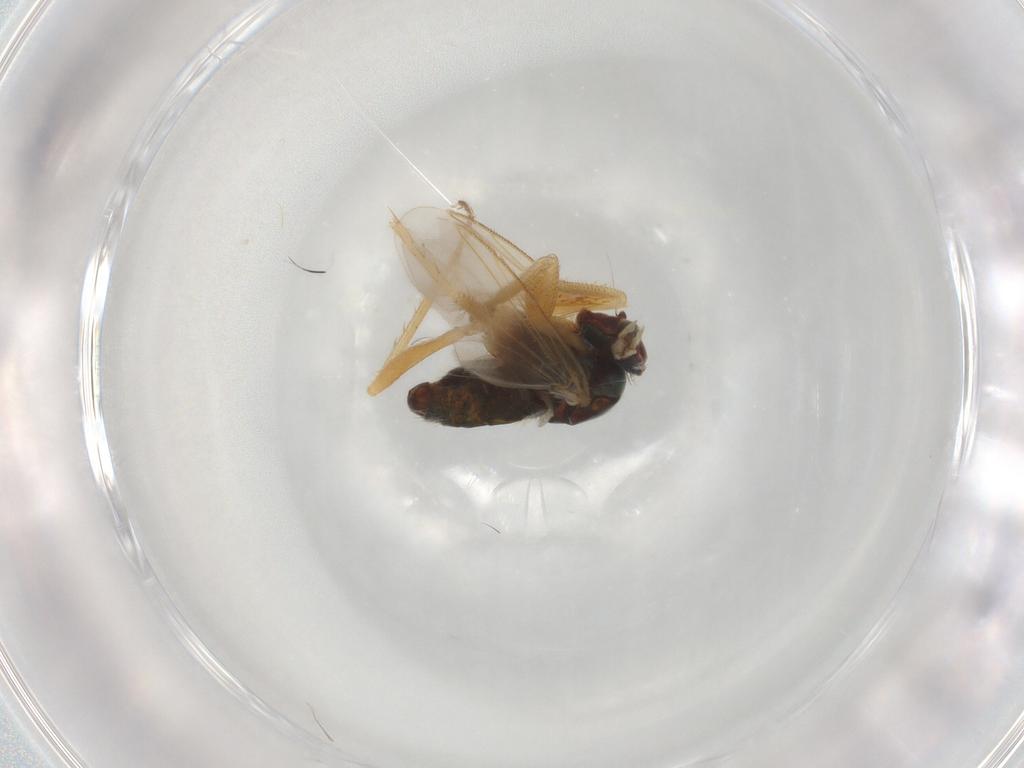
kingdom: Animalia
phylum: Arthropoda
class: Insecta
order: Diptera
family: Dolichopodidae
